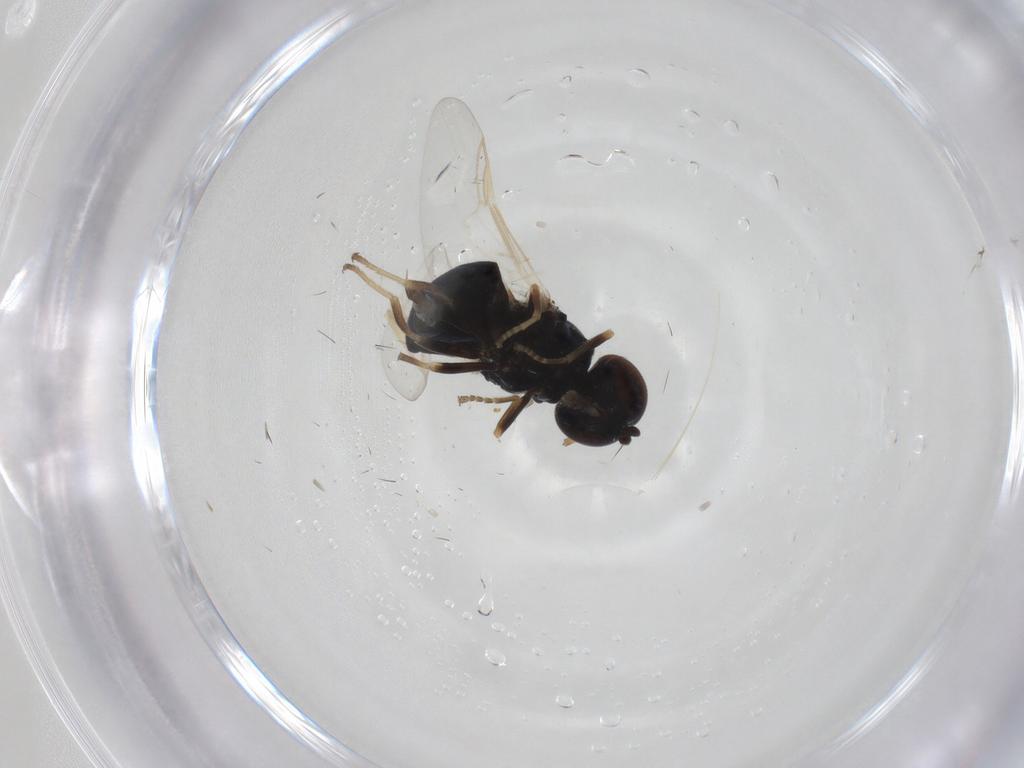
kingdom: Animalia
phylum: Arthropoda
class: Insecta
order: Diptera
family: Stratiomyidae
